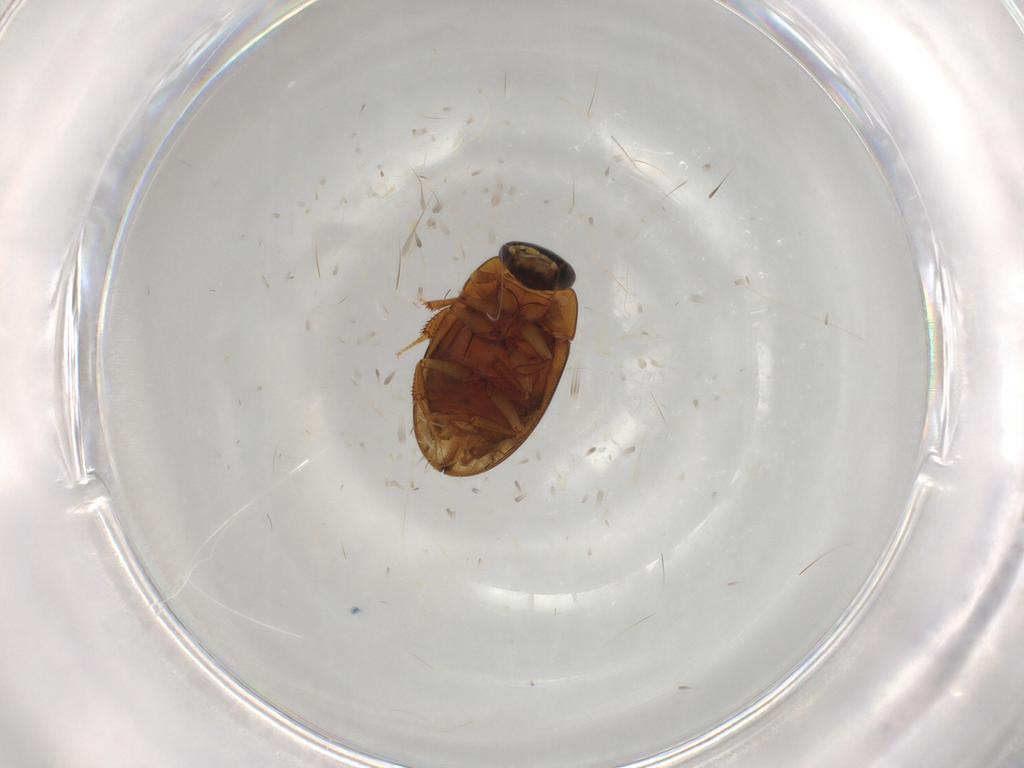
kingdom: Animalia
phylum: Arthropoda
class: Insecta
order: Coleoptera
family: Hydrophilidae
